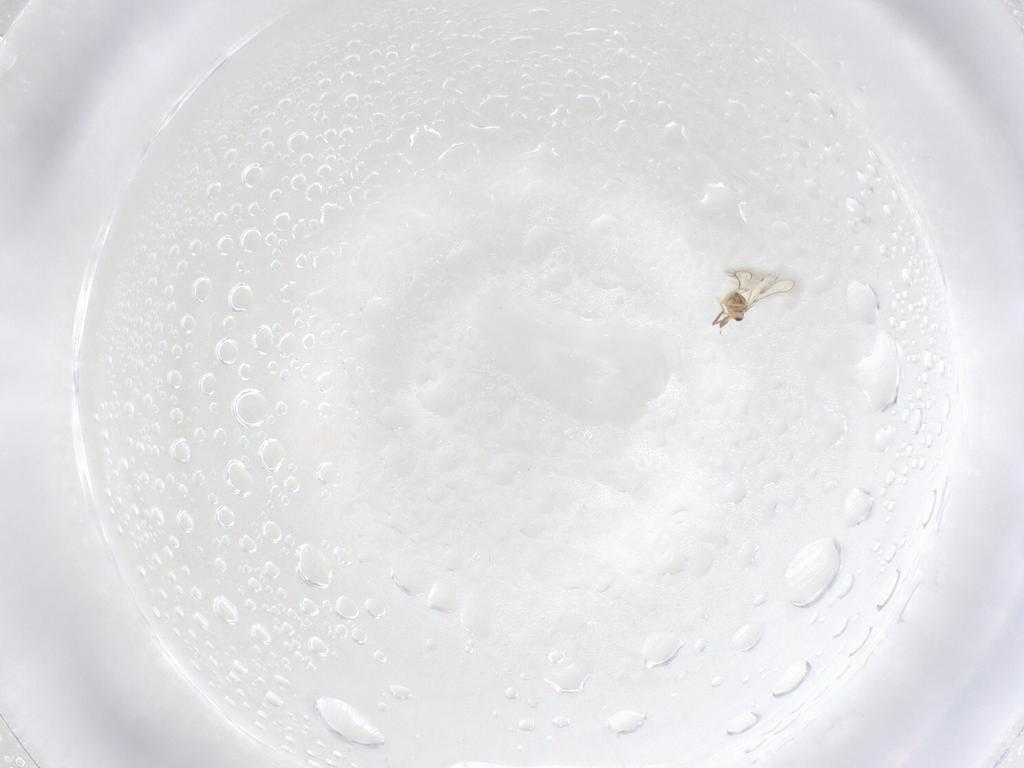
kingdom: Animalia
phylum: Arthropoda
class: Insecta
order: Hymenoptera
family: Mymaridae
